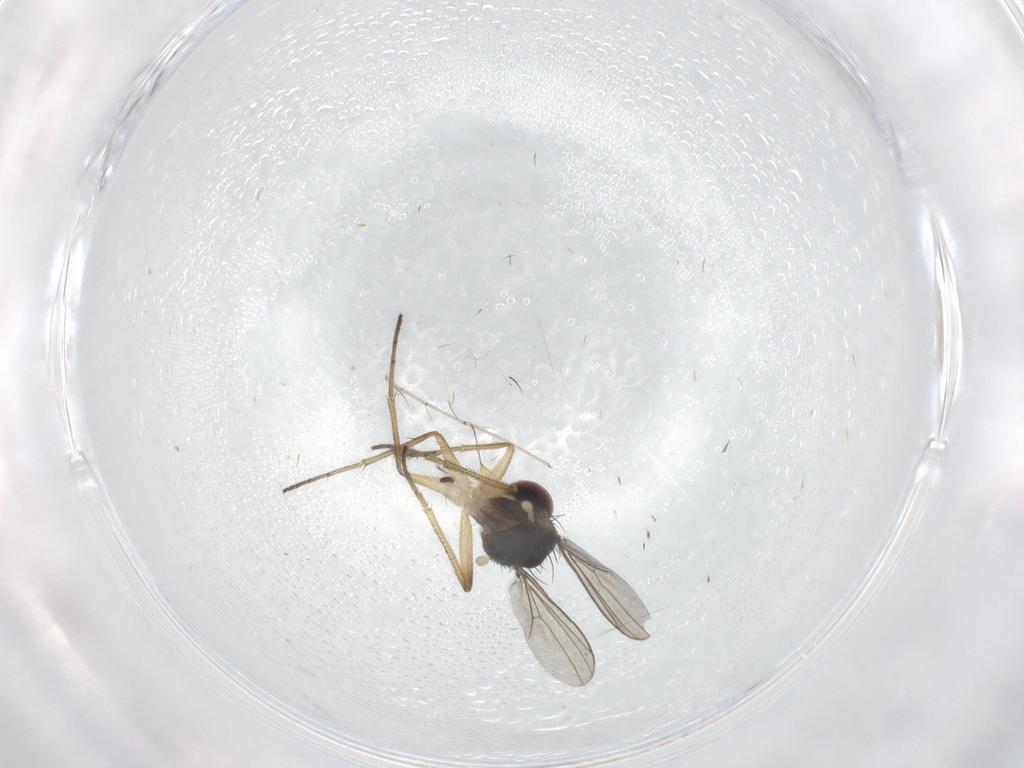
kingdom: Animalia
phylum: Arthropoda
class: Insecta
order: Diptera
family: Dolichopodidae
